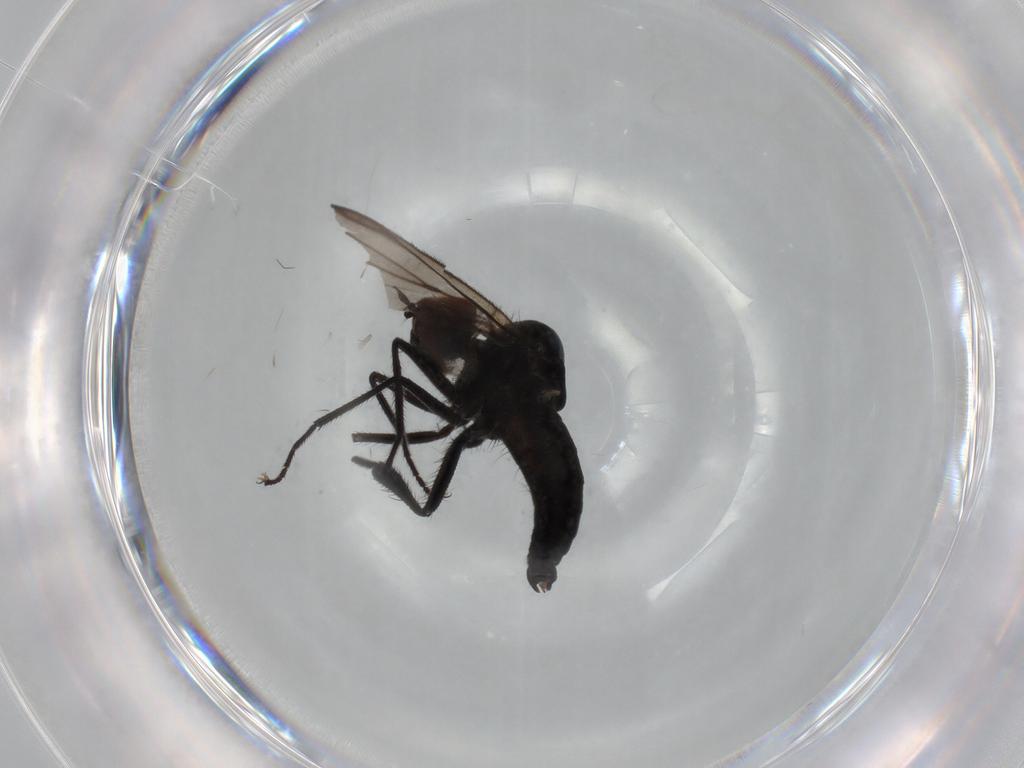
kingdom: Animalia
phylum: Arthropoda
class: Insecta
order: Diptera
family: Hybotidae
